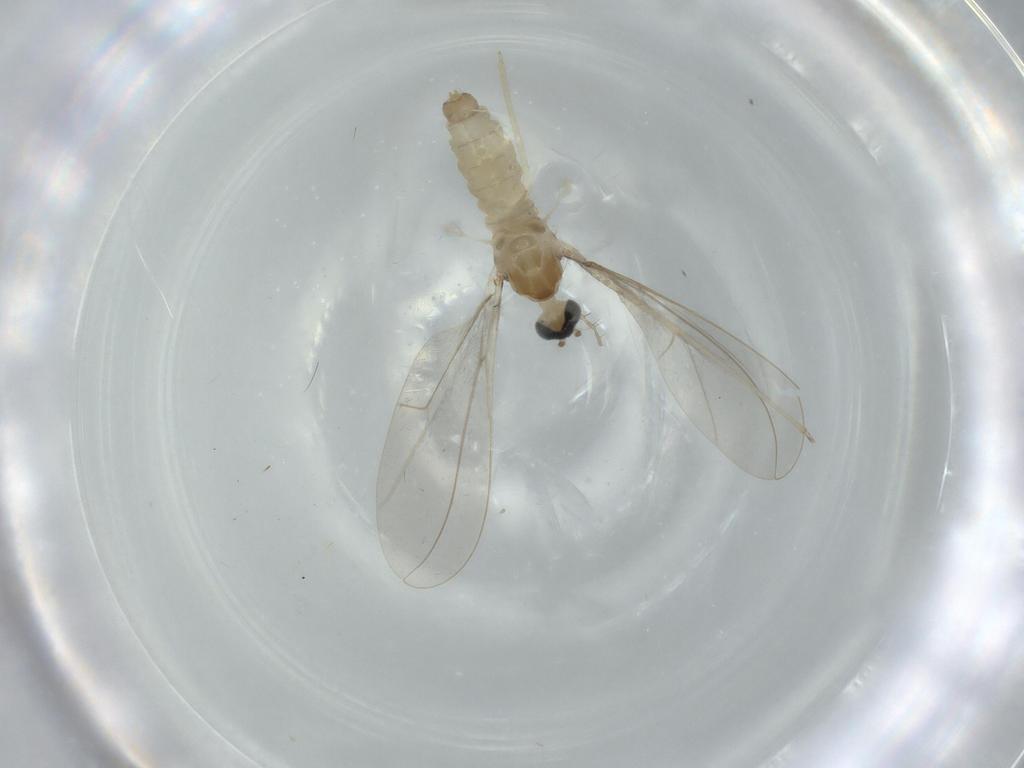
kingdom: Animalia
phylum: Arthropoda
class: Insecta
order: Diptera
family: Cecidomyiidae
